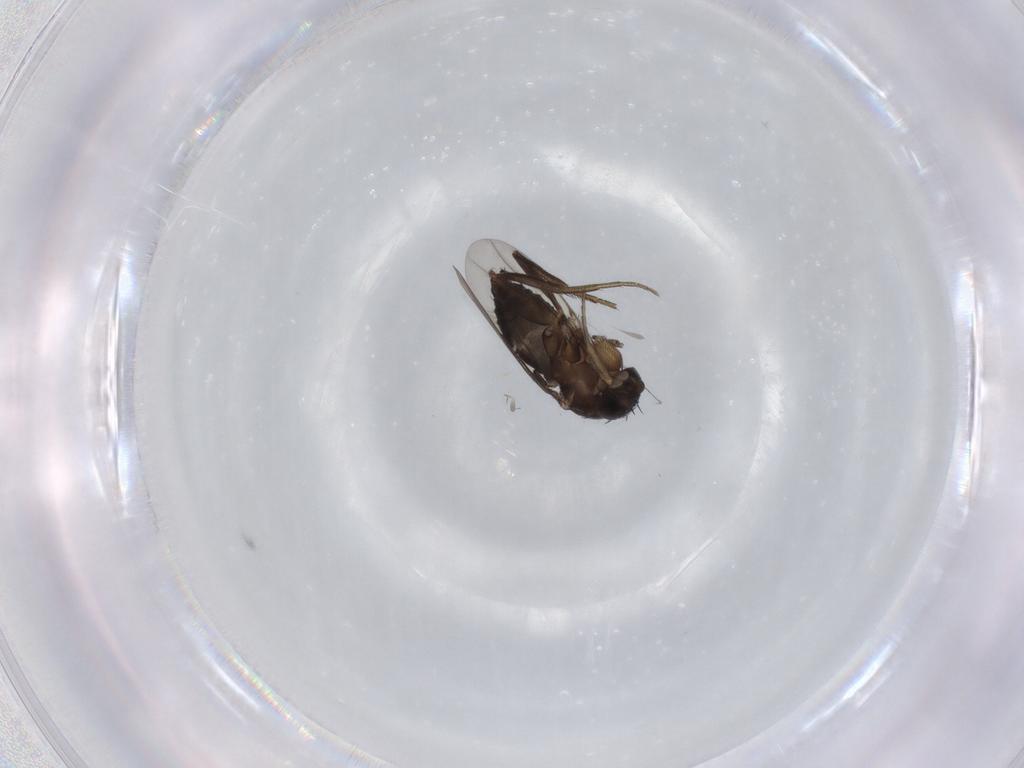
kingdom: Animalia
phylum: Arthropoda
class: Insecta
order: Diptera
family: Phoridae
